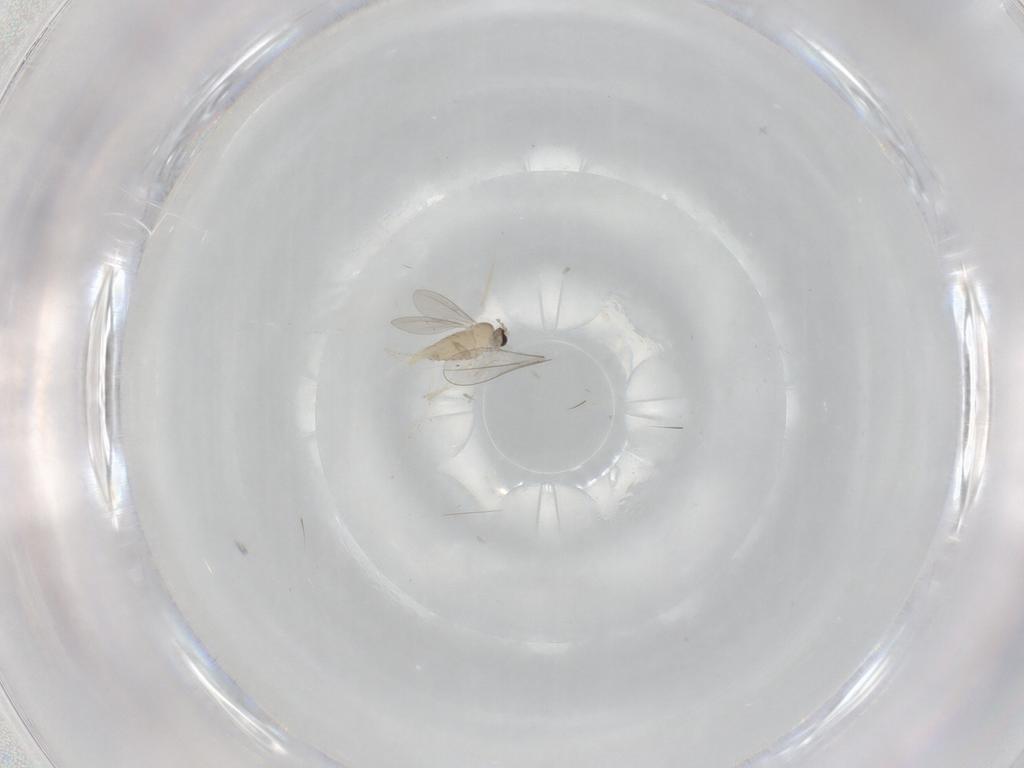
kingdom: Animalia
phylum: Arthropoda
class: Insecta
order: Diptera
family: Cecidomyiidae
